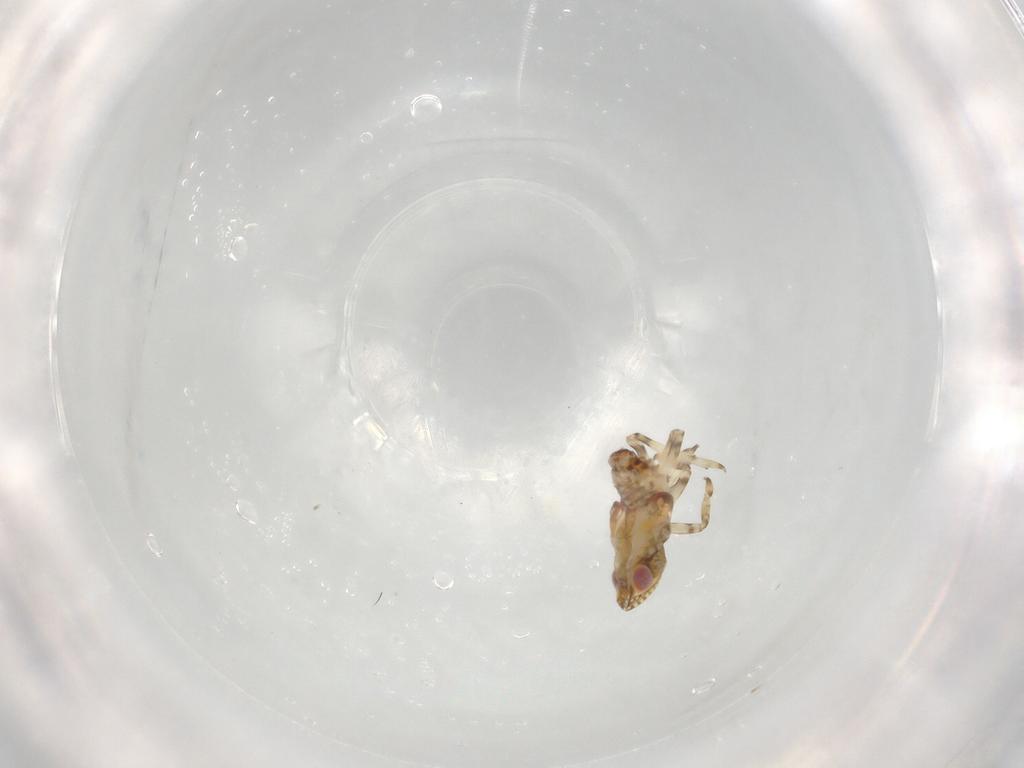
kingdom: Animalia
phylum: Arthropoda
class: Insecta
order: Hemiptera
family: Tropiduchidae
